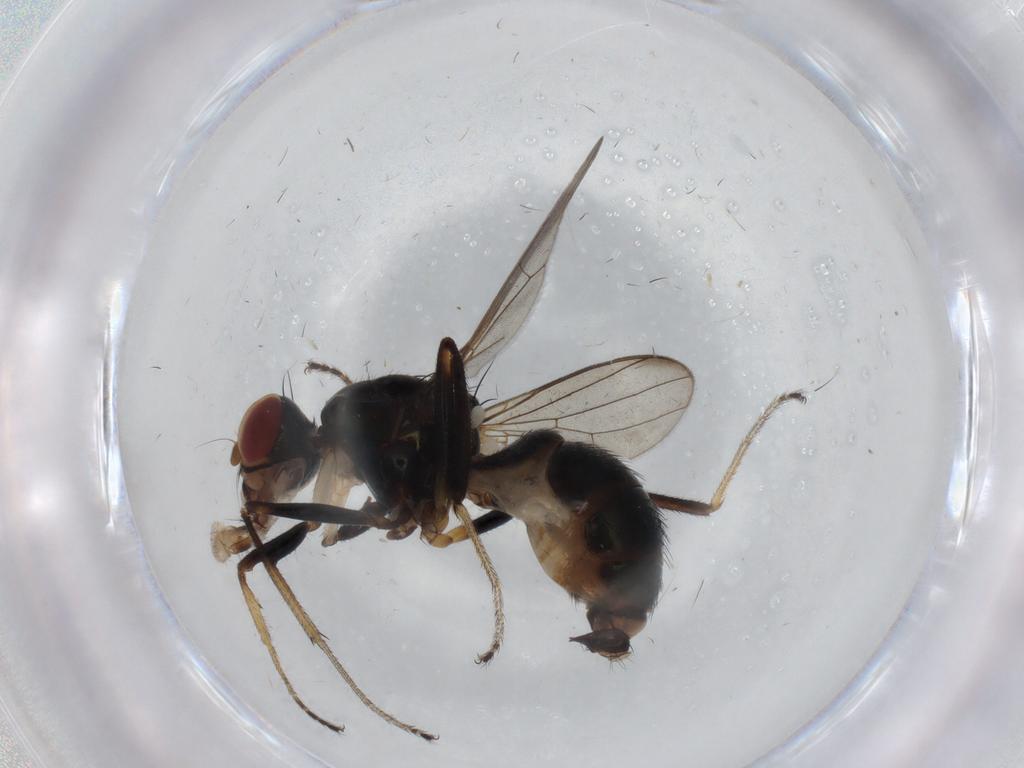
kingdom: Animalia
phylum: Arthropoda
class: Insecta
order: Diptera
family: Sepsidae
